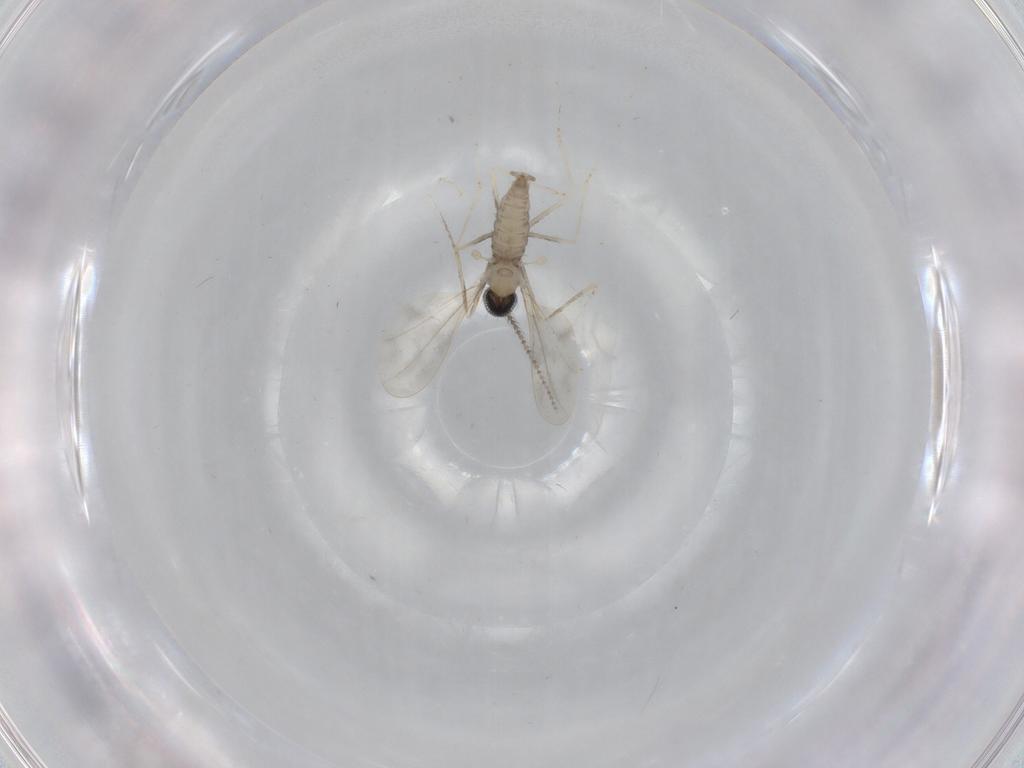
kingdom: Animalia
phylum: Arthropoda
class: Insecta
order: Diptera
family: Cecidomyiidae
